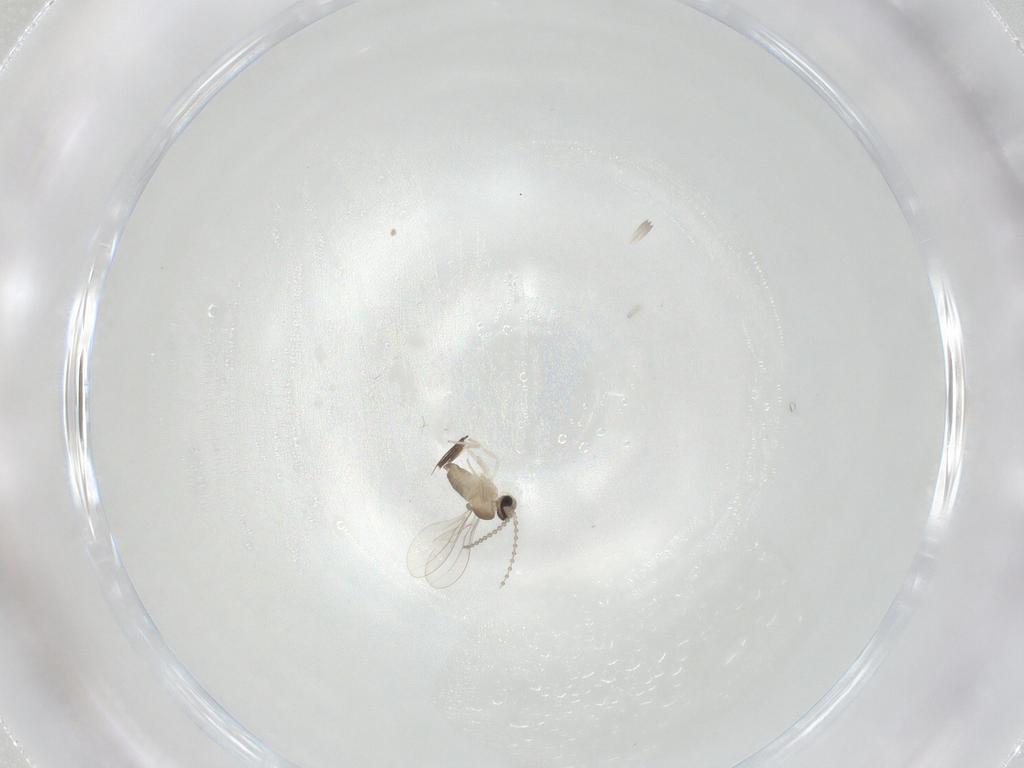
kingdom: Animalia
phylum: Arthropoda
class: Insecta
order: Diptera
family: Cecidomyiidae
